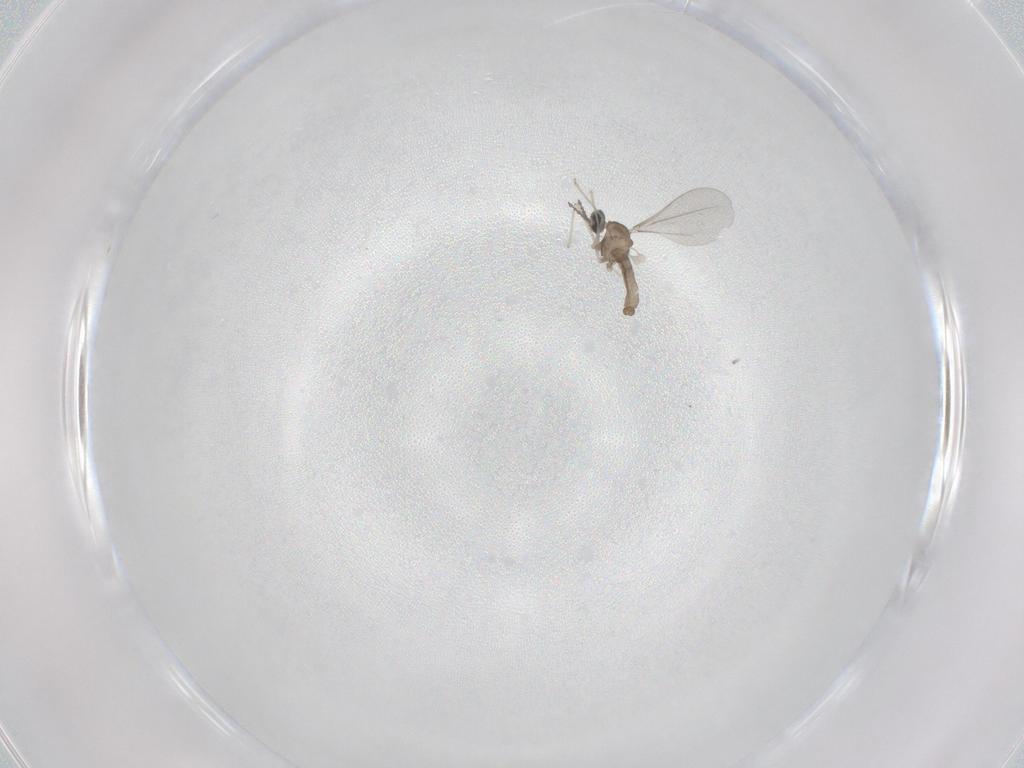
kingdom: Animalia
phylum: Arthropoda
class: Insecta
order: Diptera
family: Cecidomyiidae
